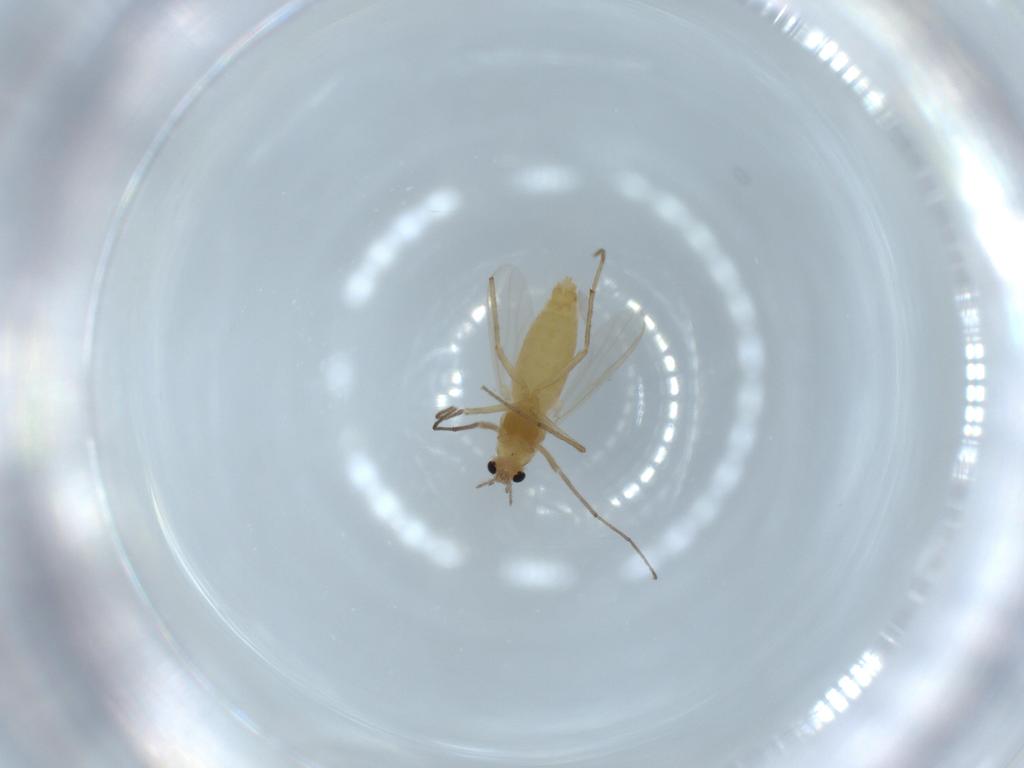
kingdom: Animalia
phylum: Arthropoda
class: Insecta
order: Diptera
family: Chironomidae
